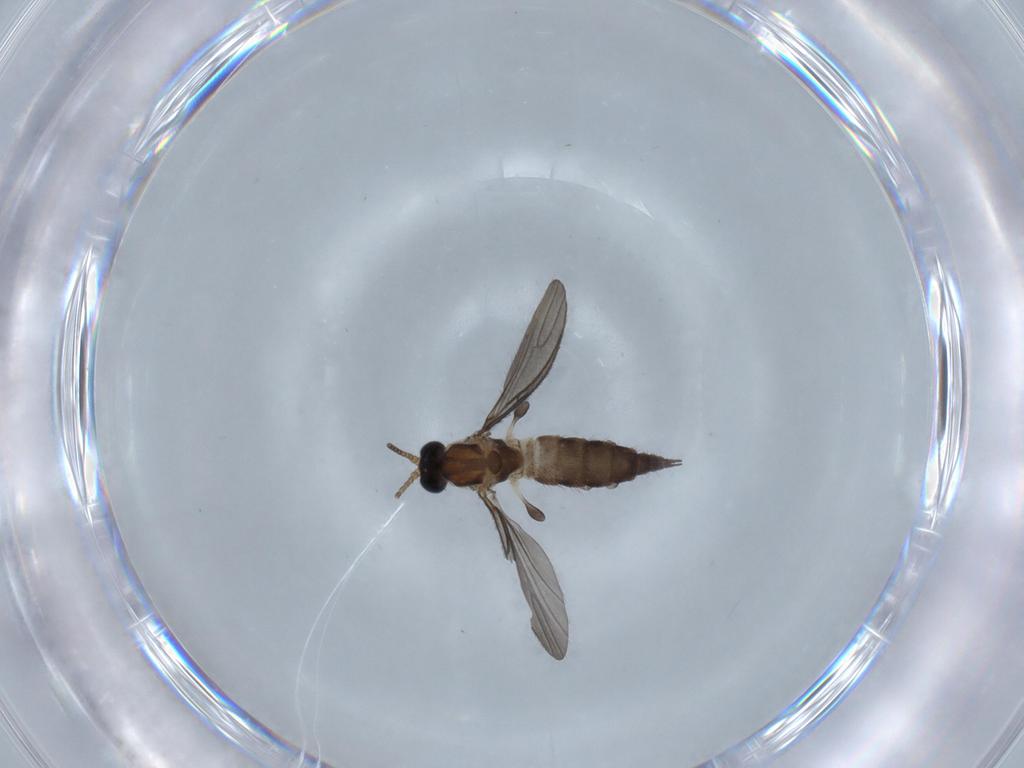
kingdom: Animalia
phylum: Arthropoda
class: Insecta
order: Diptera
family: Sciaridae
